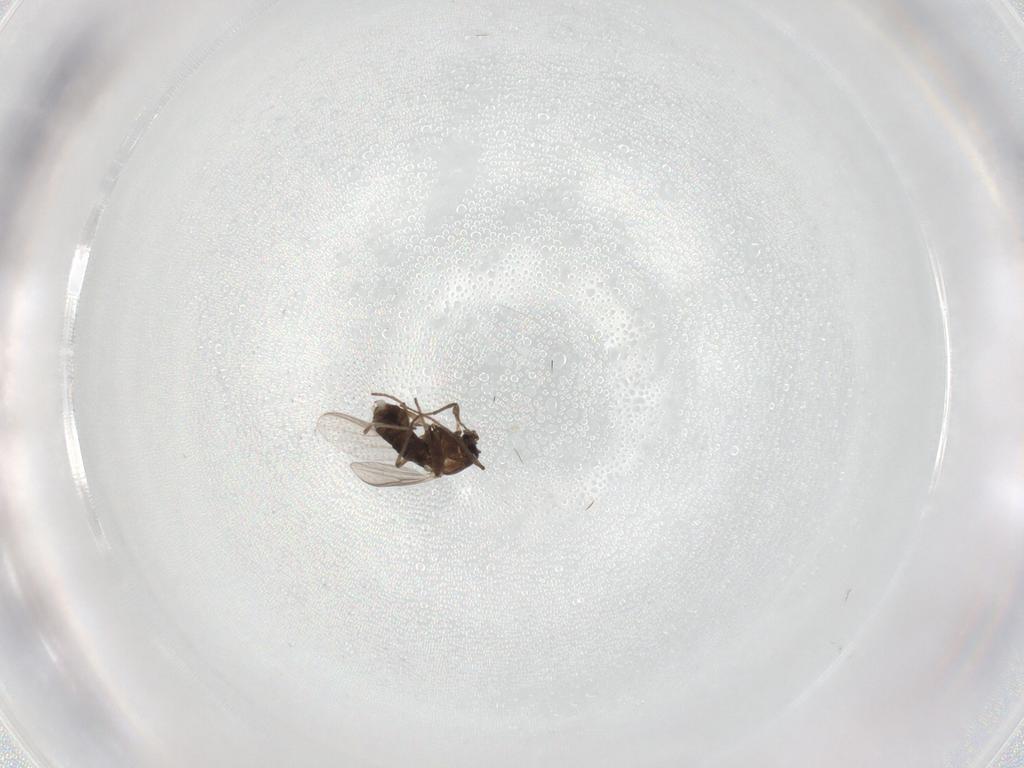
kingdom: Animalia
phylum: Arthropoda
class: Insecta
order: Diptera
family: Chironomidae
